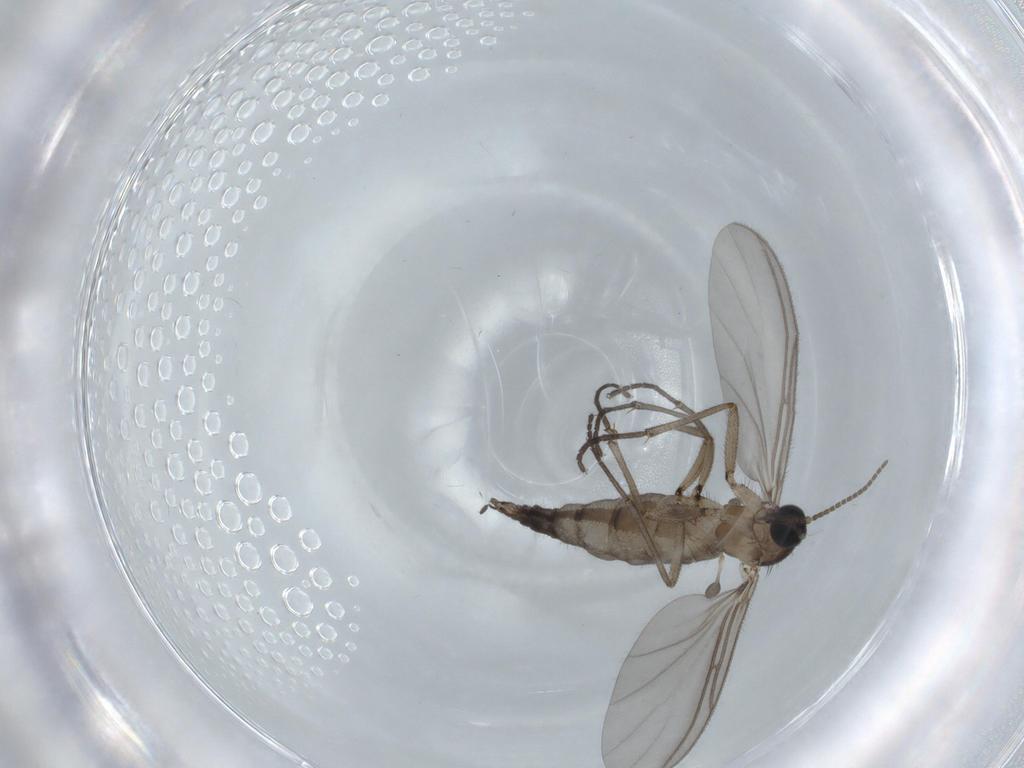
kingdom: Animalia
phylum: Arthropoda
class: Insecta
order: Diptera
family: Sciaridae
